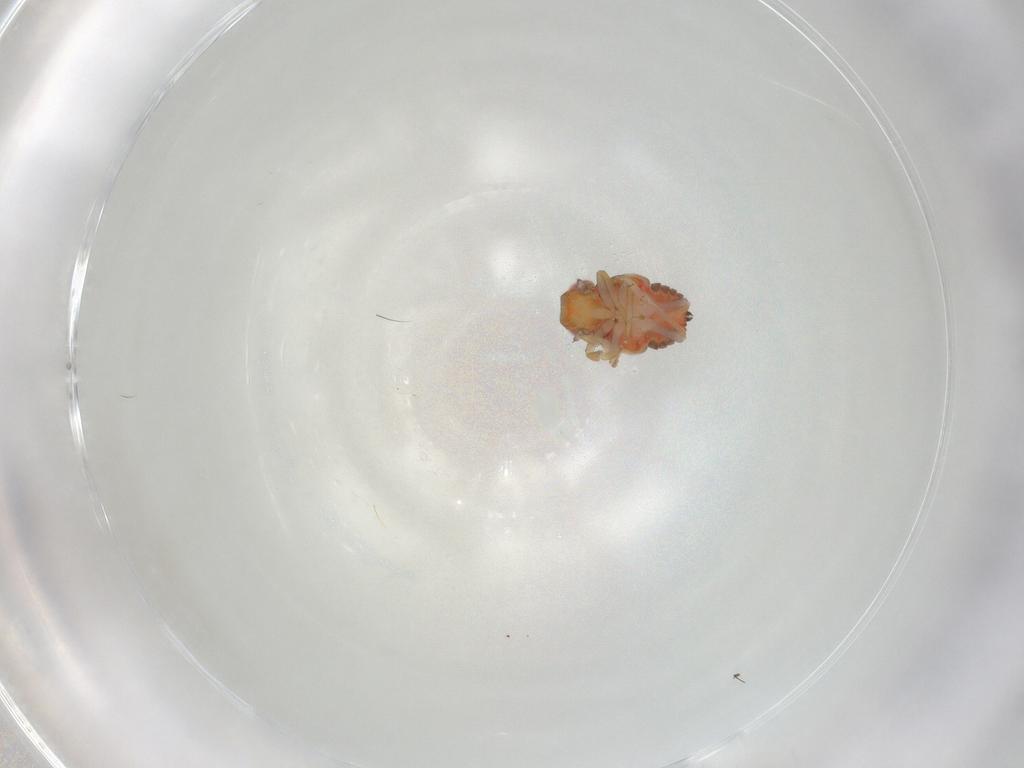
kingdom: Animalia
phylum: Arthropoda
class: Insecta
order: Hemiptera
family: Issidae
